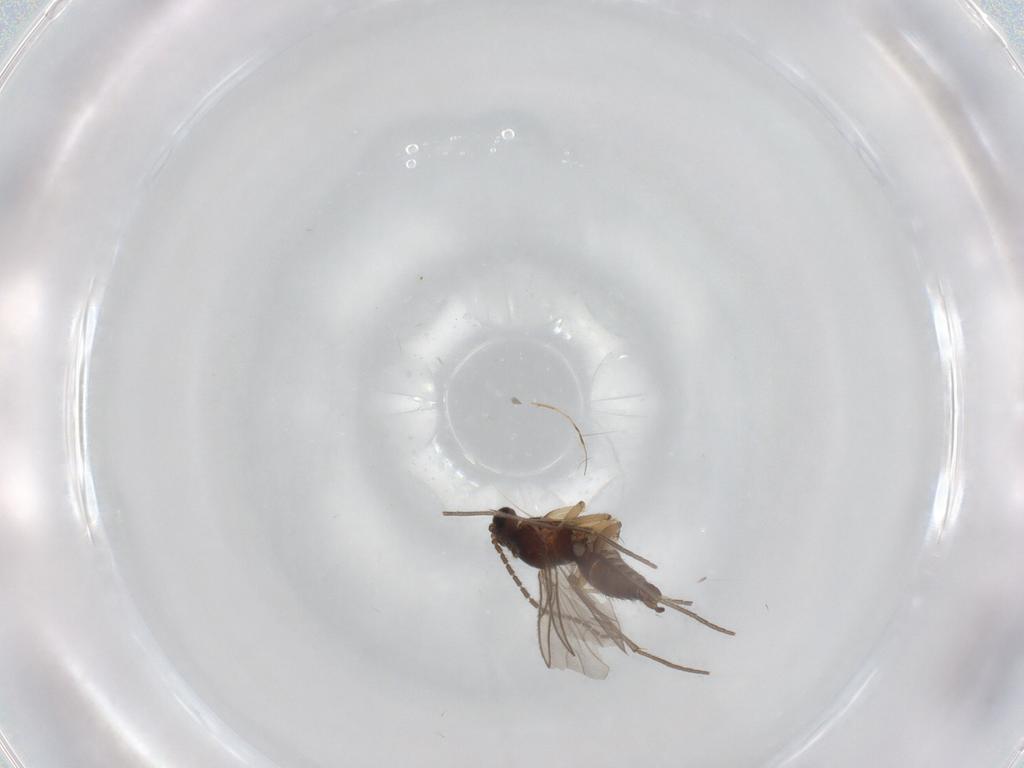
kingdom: Animalia
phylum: Arthropoda
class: Insecta
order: Diptera
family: Sciaridae
